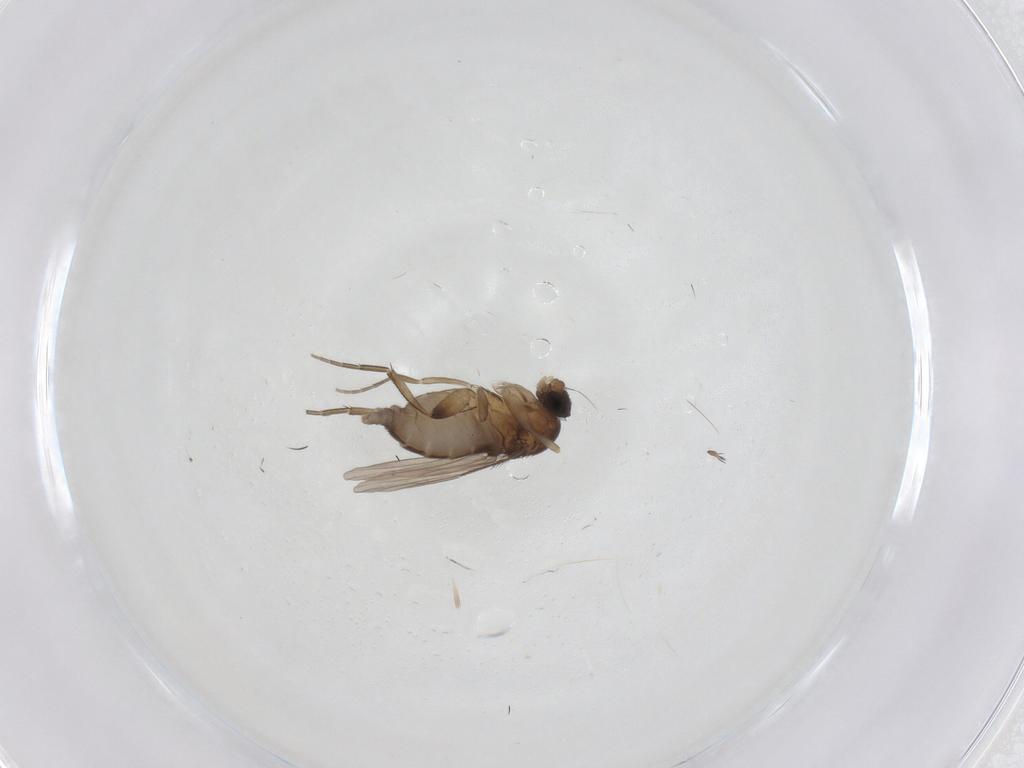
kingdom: Animalia
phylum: Arthropoda
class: Insecta
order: Diptera
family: Phoridae
